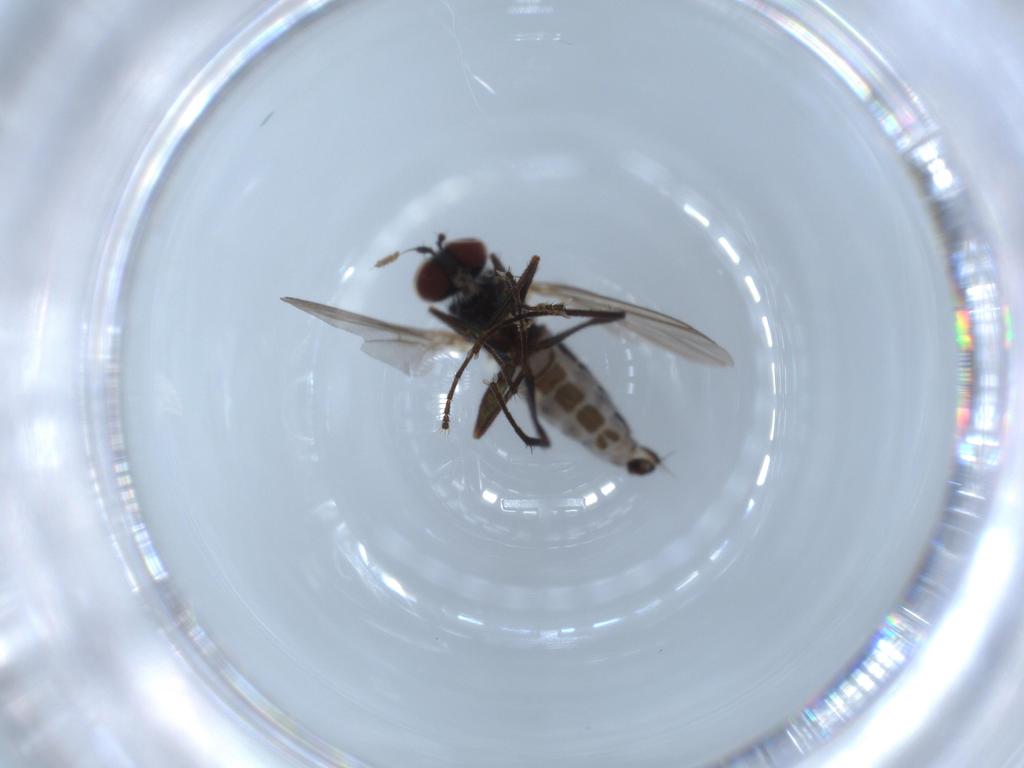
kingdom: Animalia
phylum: Arthropoda
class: Insecta
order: Diptera
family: Dolichopodidae
